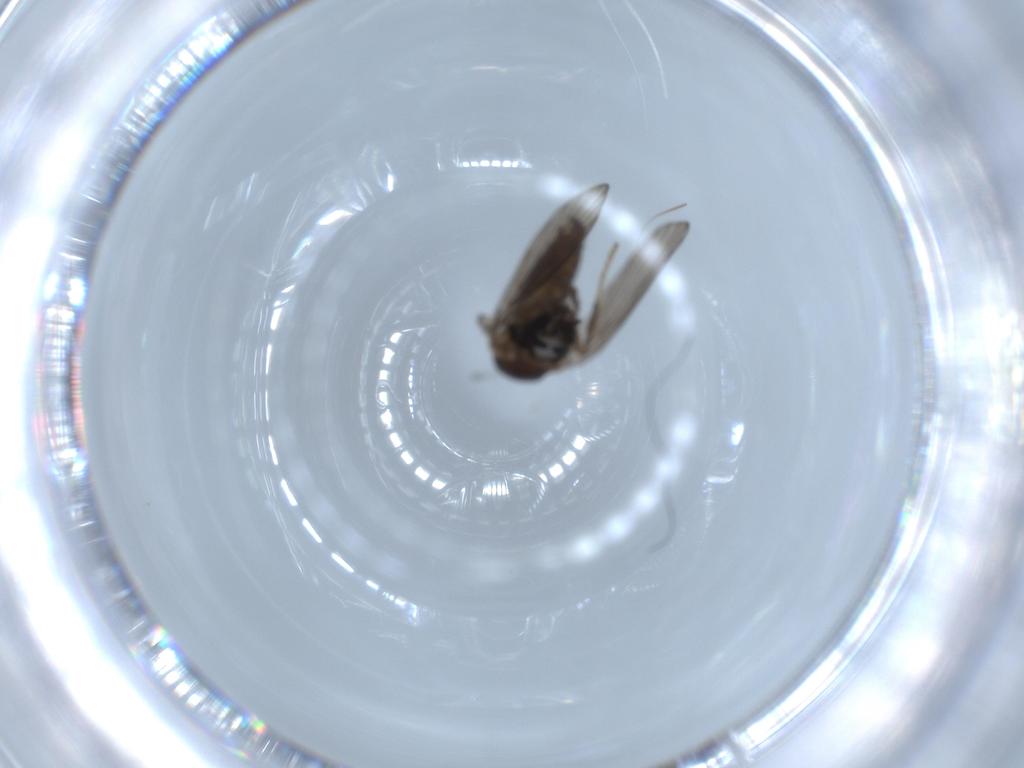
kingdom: Animalia
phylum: Arthropoda
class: Insecta
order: Diptera
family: Psychodidae
